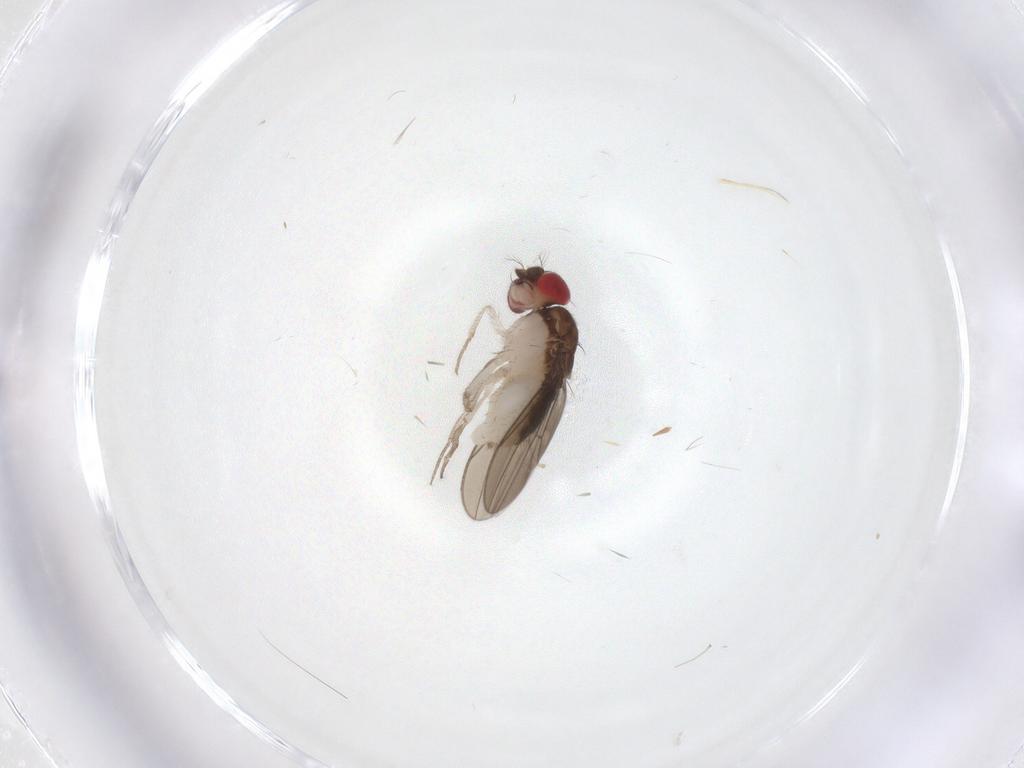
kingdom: Animalia
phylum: Arthropoda
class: Insecta
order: Diptera
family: Drosophilidae
